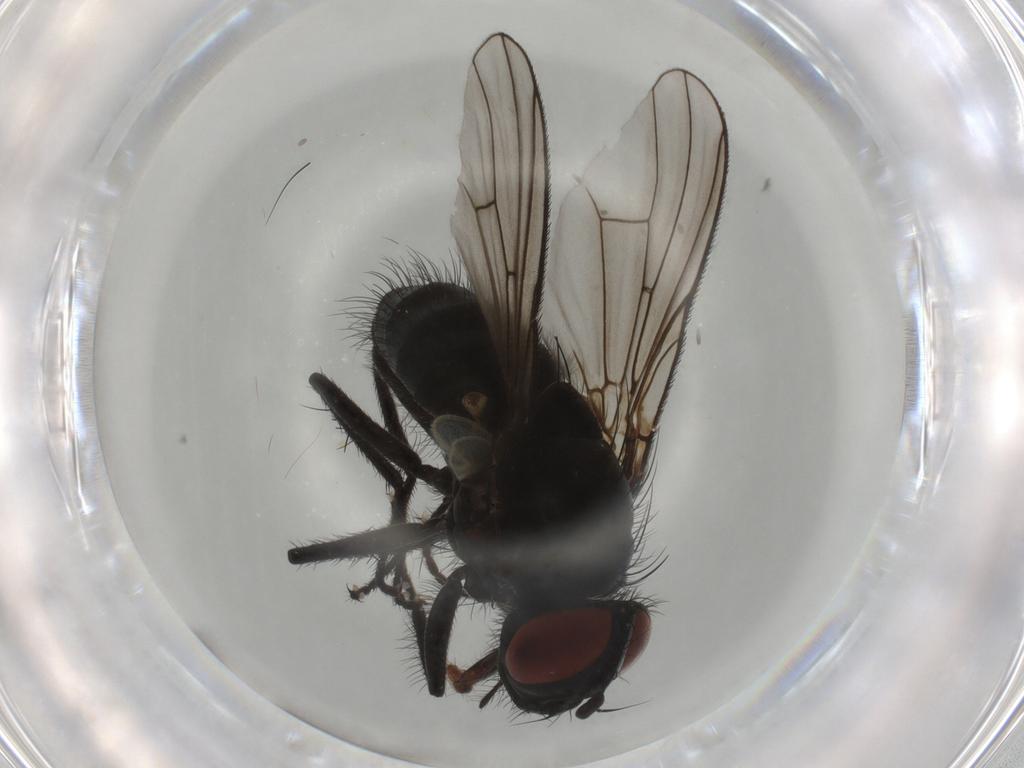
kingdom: Animalia
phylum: Arthropoda
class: Insecta
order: Diptera
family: Muscidae
